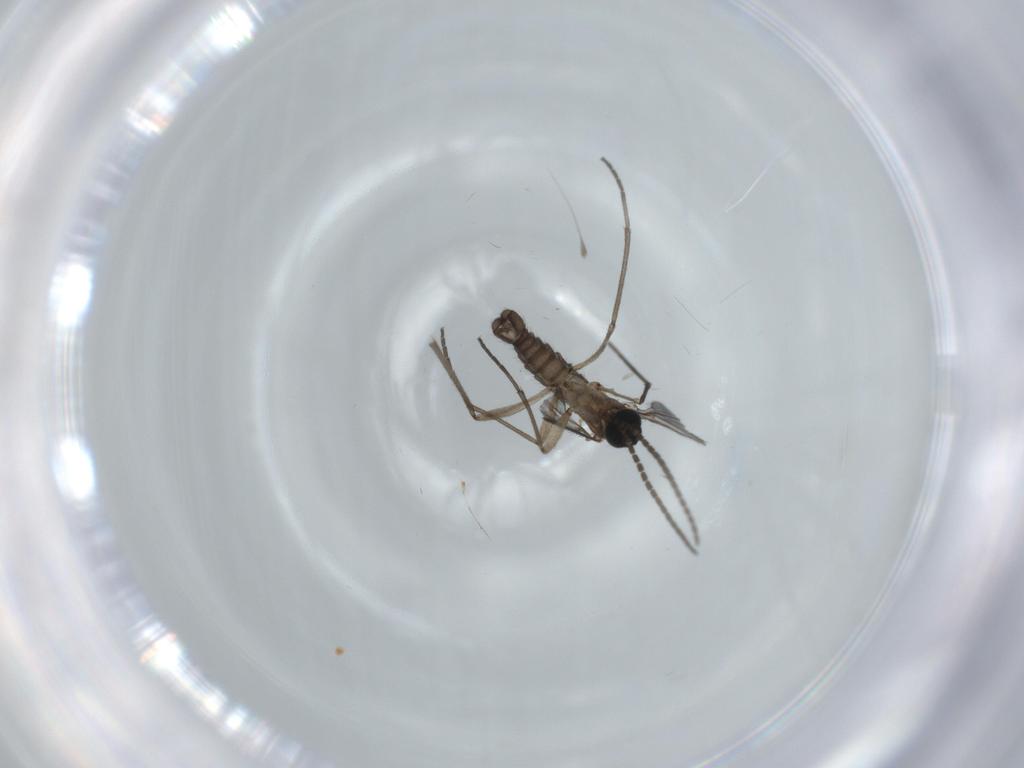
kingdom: Animalia
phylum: Arthropoda
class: Insecta
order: Diptera
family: Sciaridae
